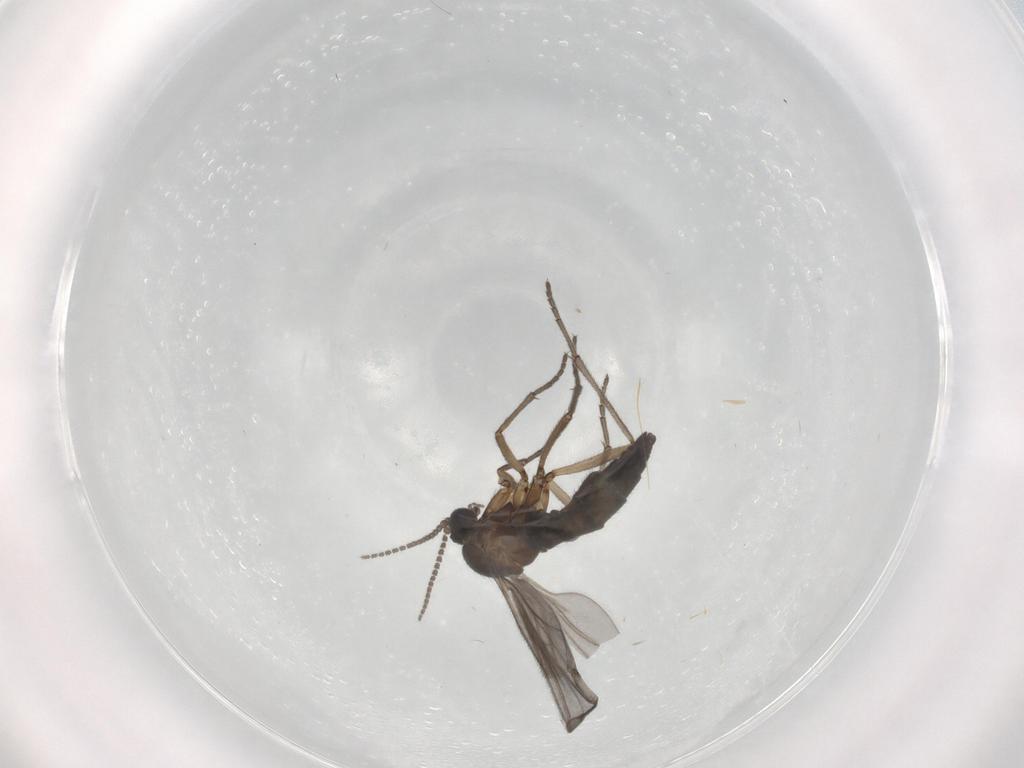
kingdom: Animalia
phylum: Arthropoda
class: Insecta
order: Diptera
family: Sciaridae
